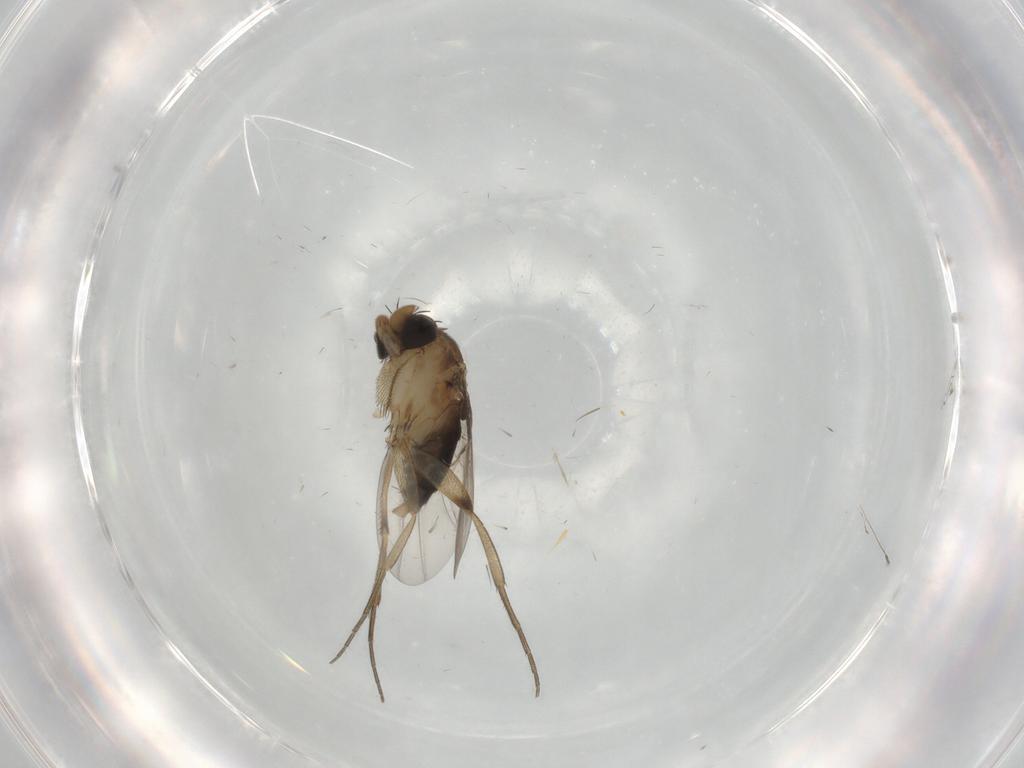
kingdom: Animalia
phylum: Arthropoda
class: Insecta
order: Diptera
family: Phoridae
